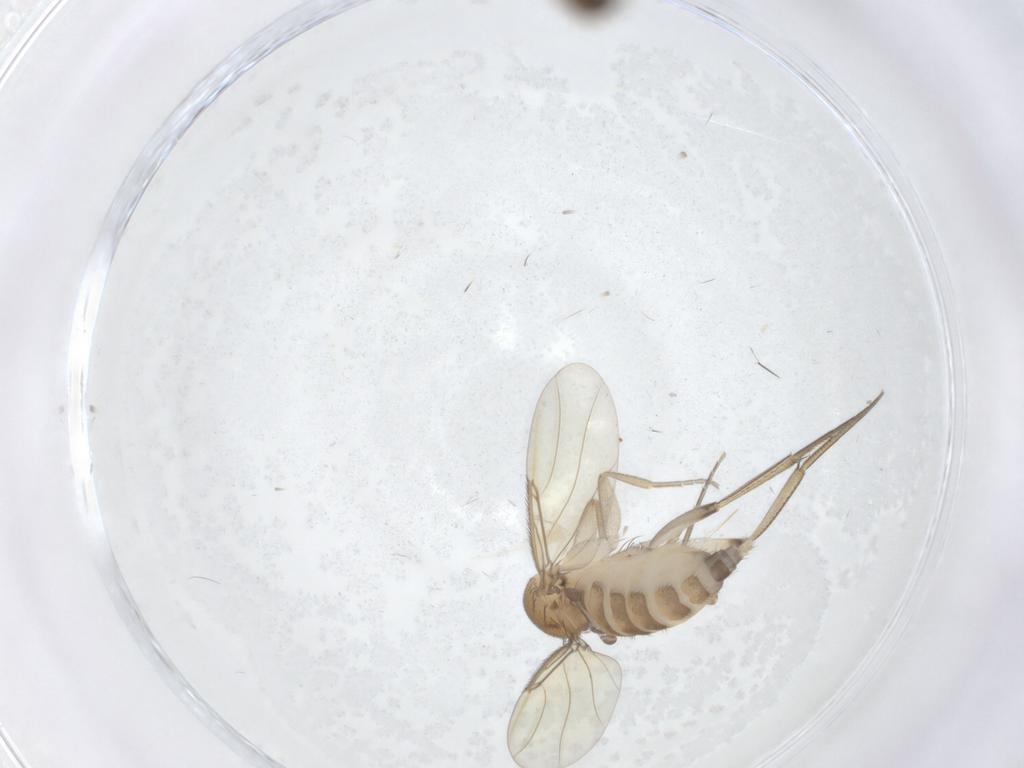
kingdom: Animalia
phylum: Arthropoda
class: Insecta
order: Diptera
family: Phoridae
